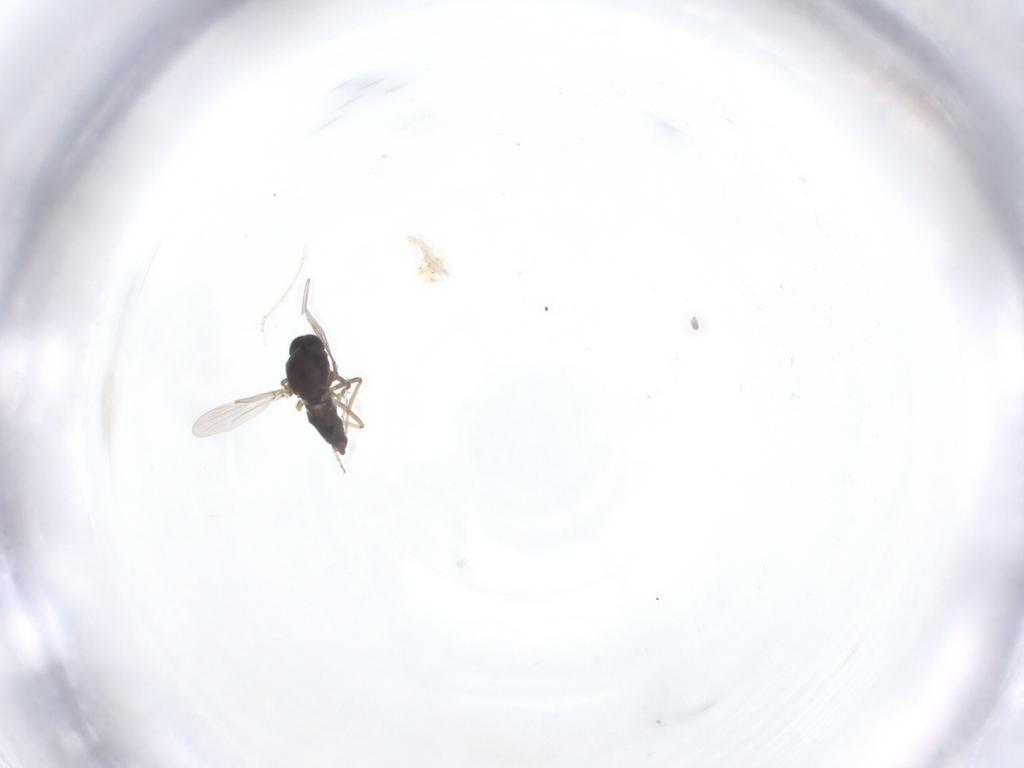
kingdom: Animalia
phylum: Arthropoda
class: Insecta
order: Diptera
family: Ceratopogonidae
